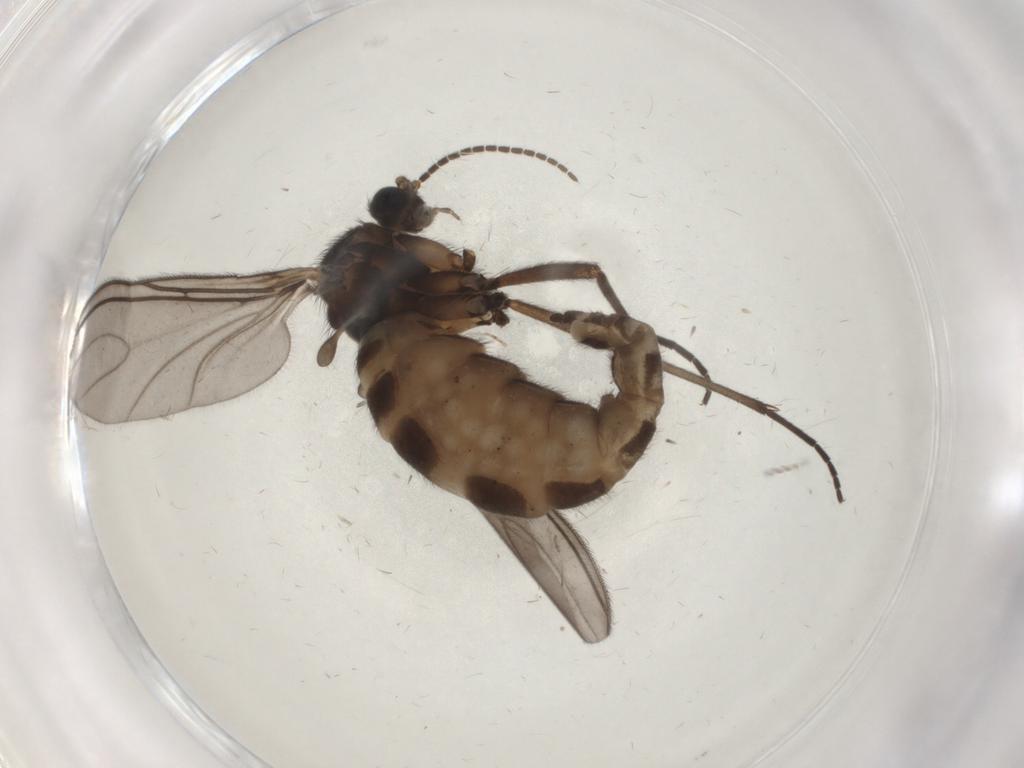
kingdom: Animalia
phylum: Arthropoda
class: Insecta
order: Diptera
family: Sciaridae
